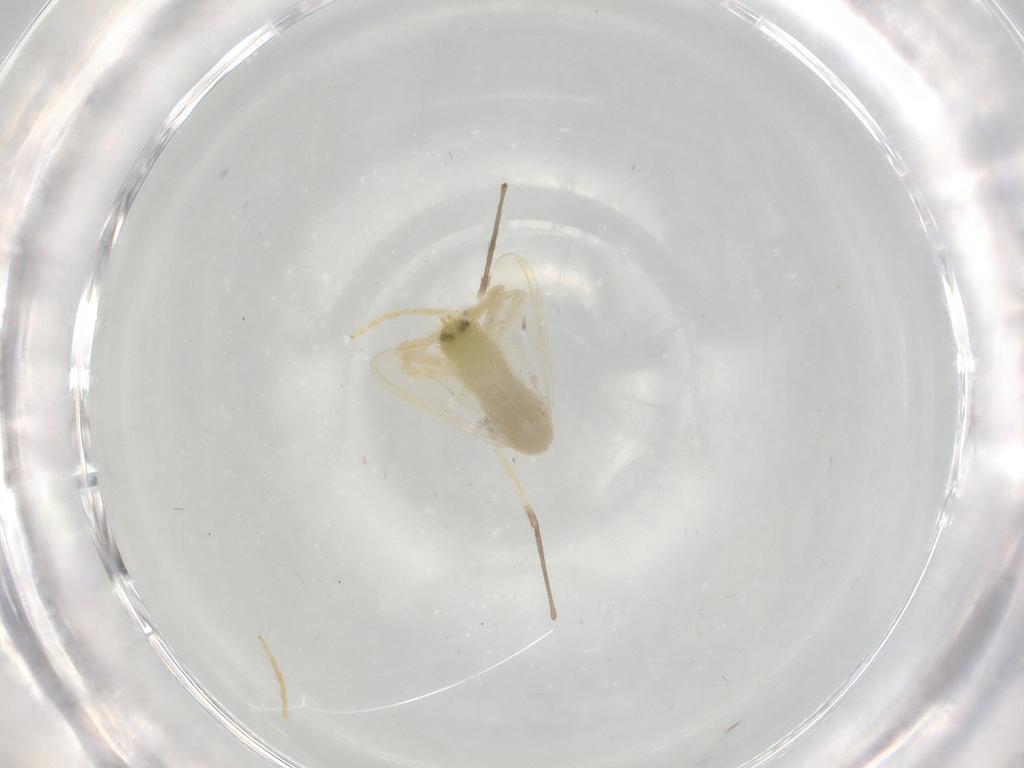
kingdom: Animalia
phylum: Arthropoda
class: Insecta
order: Diptera
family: Chironomidae
